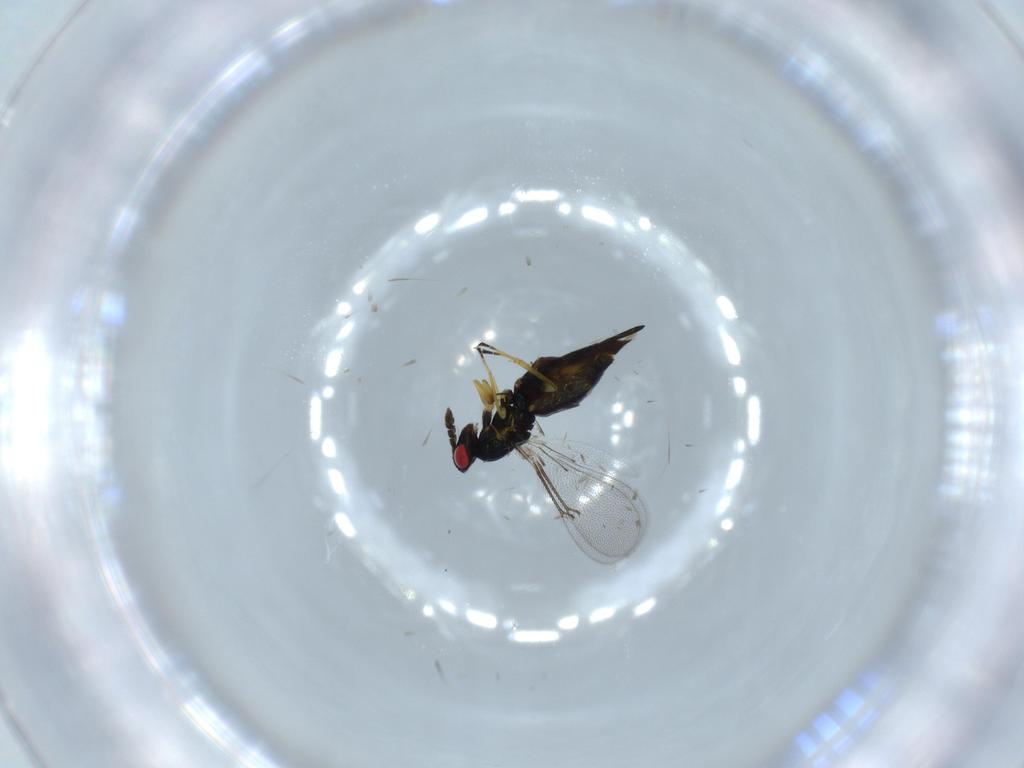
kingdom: Animalia
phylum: Arthropoda
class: Insecta
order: Hymenoptera
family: Eulophidae
